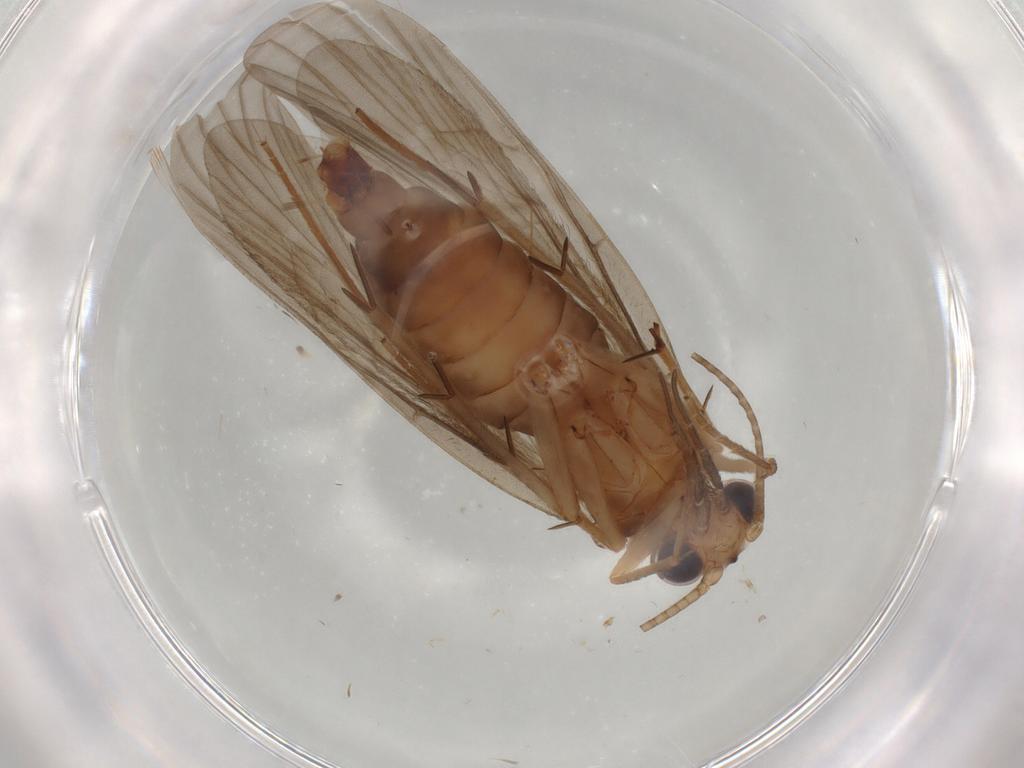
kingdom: Animalia
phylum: Arthropoda
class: Insecta
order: Trichoptera
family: Philopotamidae
